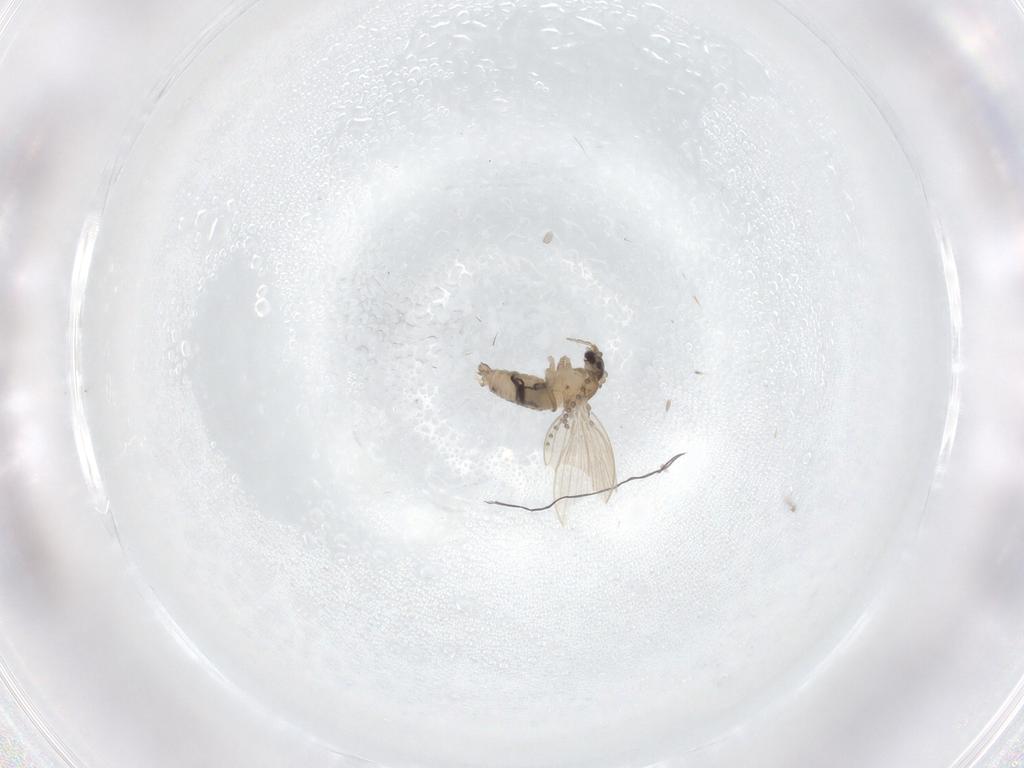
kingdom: Animalia
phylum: Arthropoda
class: Insecta
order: Diptera
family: Psychodidae
